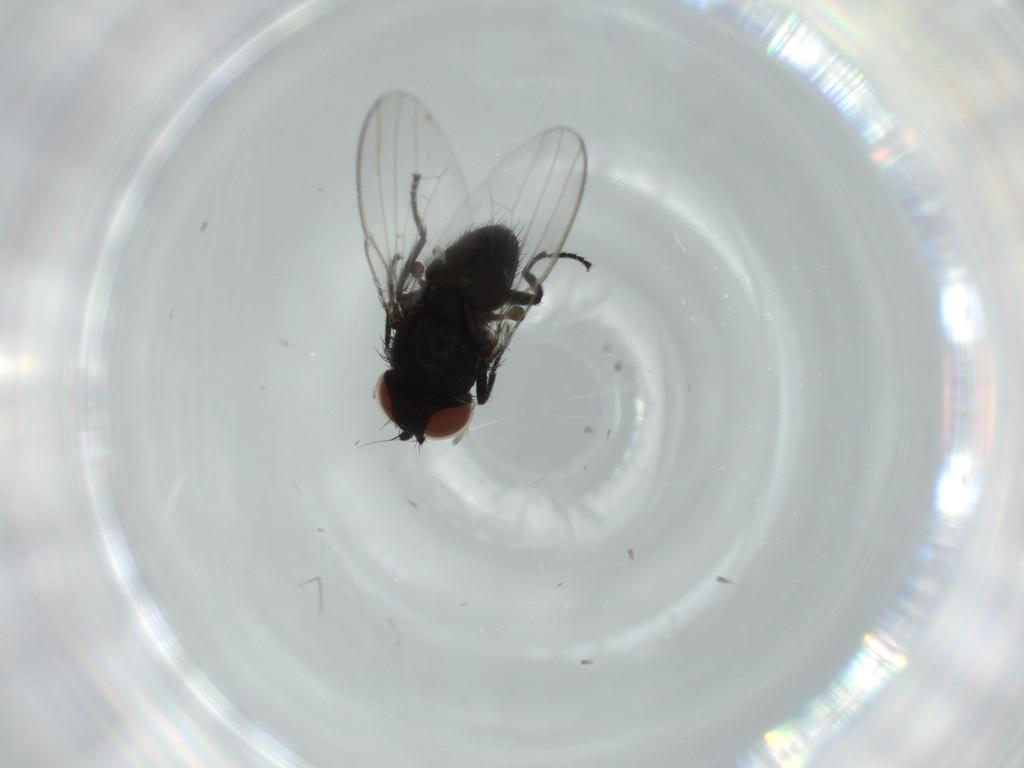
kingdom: Animalia
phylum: Arthropoda
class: Insecta
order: Diptera
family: Milichiidae
